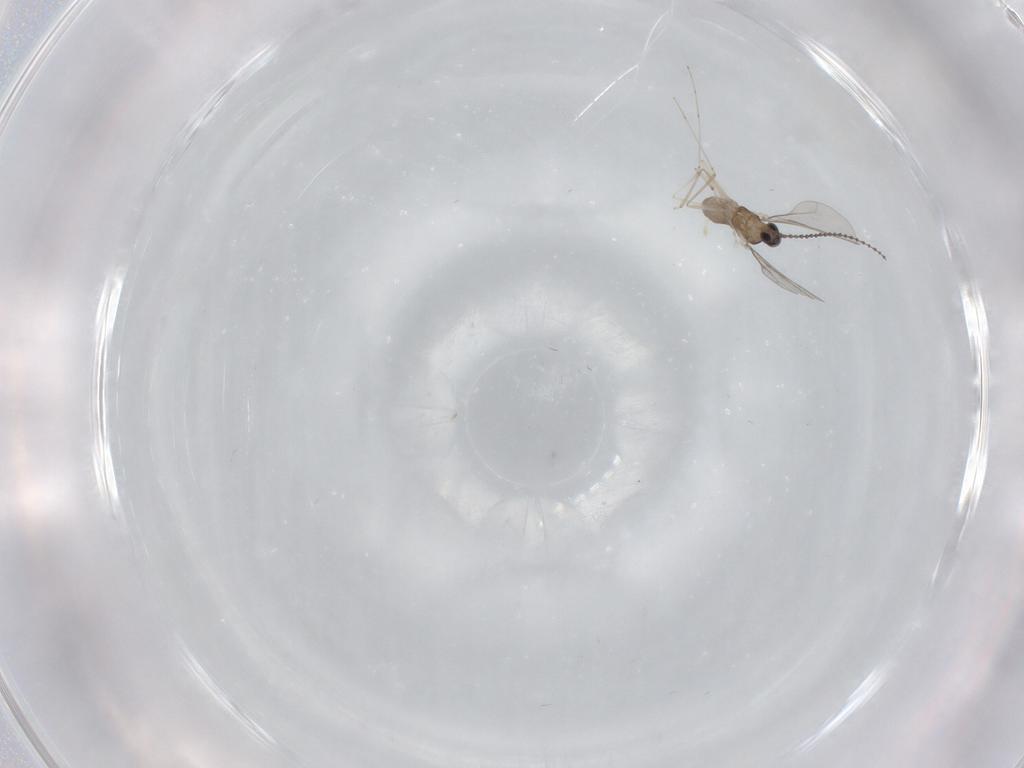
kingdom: Animalia
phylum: Arthropoda
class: Insecta
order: Diptera
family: Cecidomyiidae
